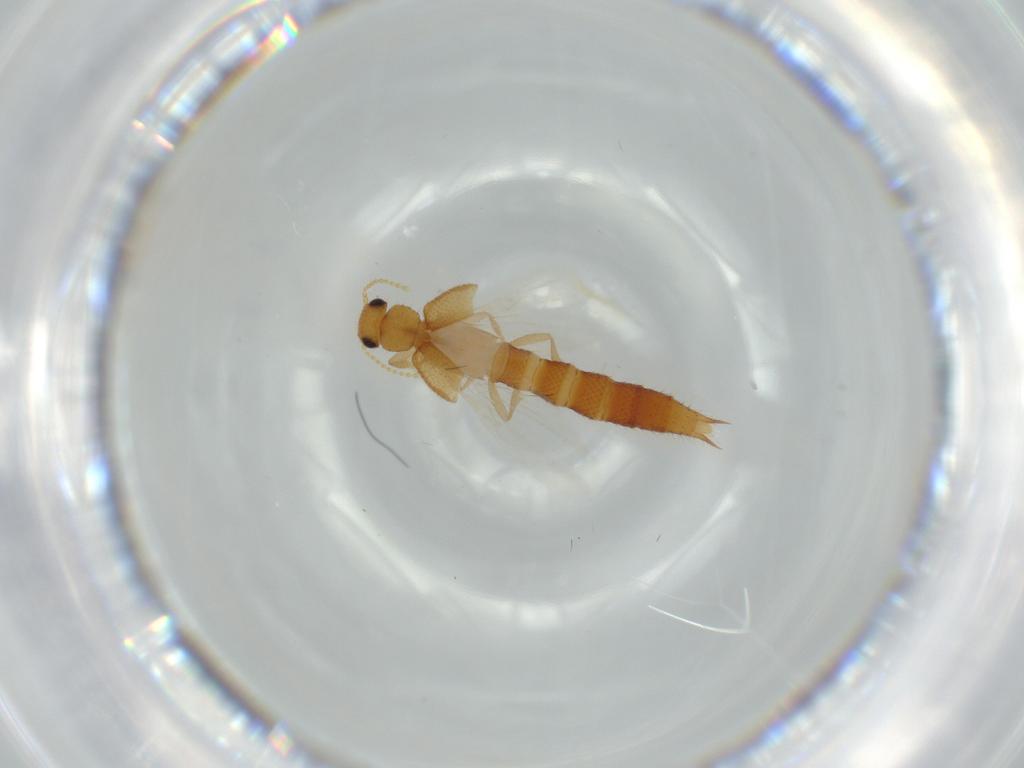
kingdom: Animalia
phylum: Arthropoda
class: Insecta
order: Coleoptera
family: Staphylinidae
